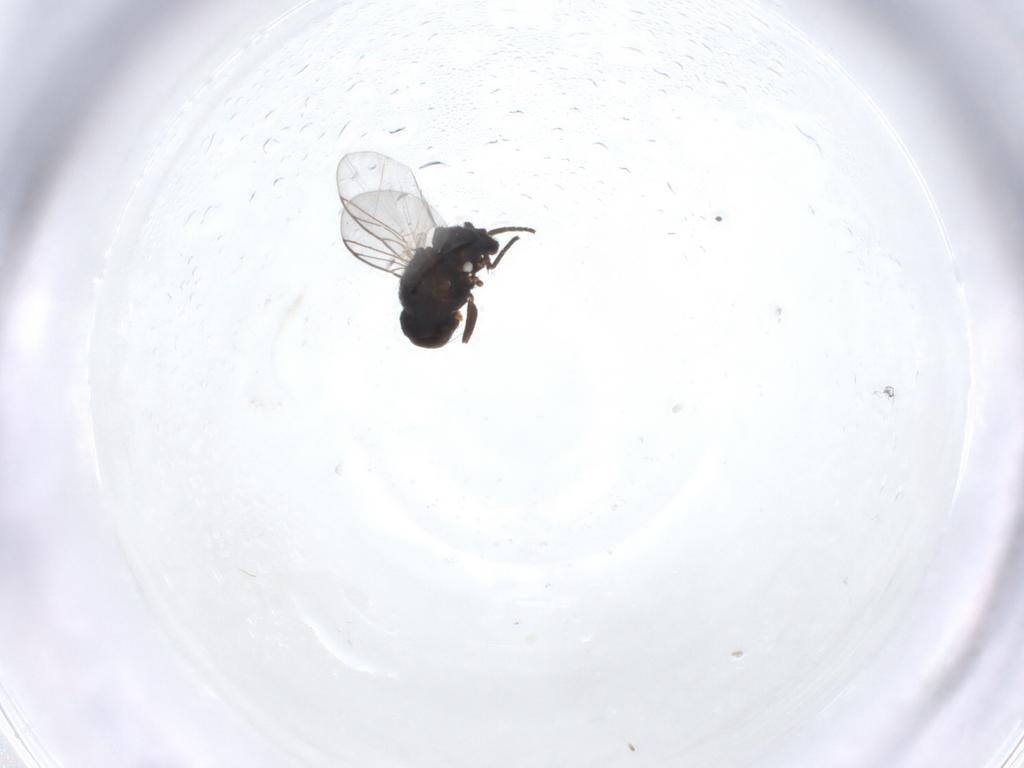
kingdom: Animalia
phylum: Arthropoda
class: Insecta
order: Diptera
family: Agromyzidae
